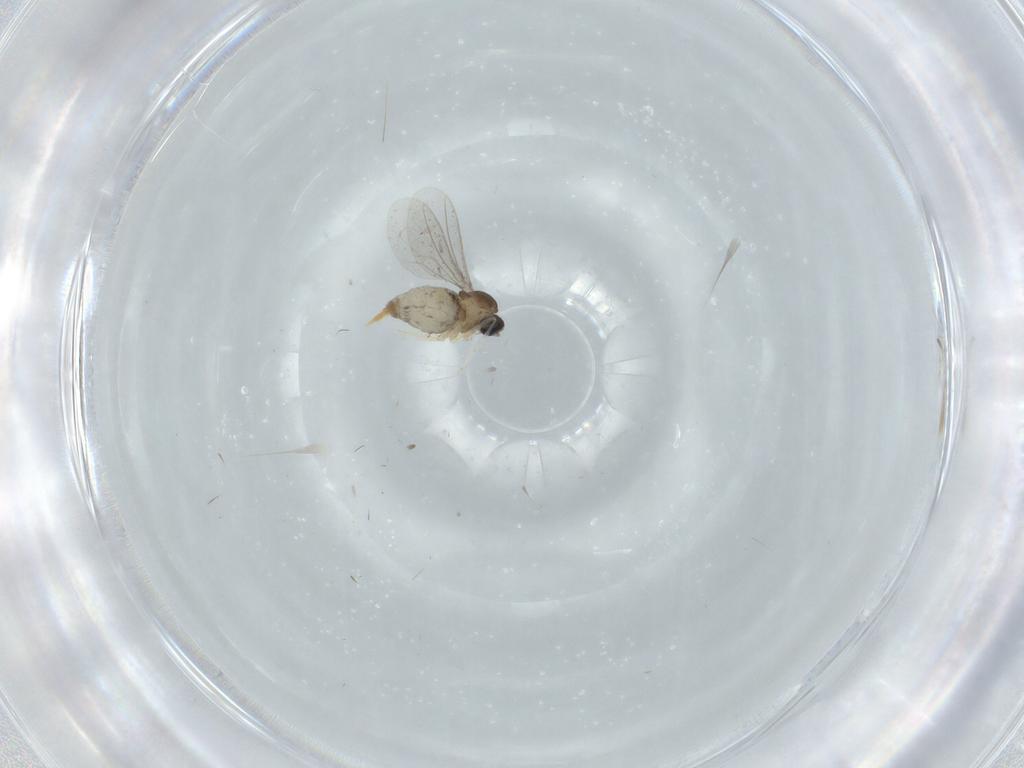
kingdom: Animalia
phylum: Arthropoda
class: Insecta
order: Diptera
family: Cecidomyiidae
